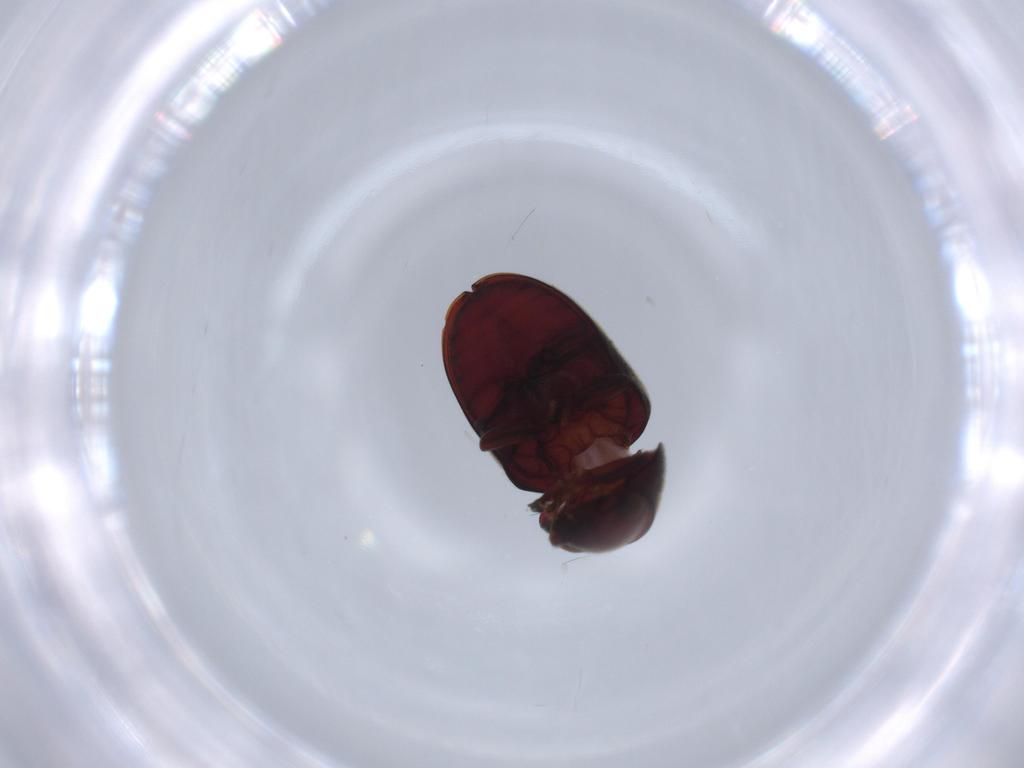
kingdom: Animalia
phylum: Arthropoda
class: Insecta
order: Coleoptera
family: Ptinidae
